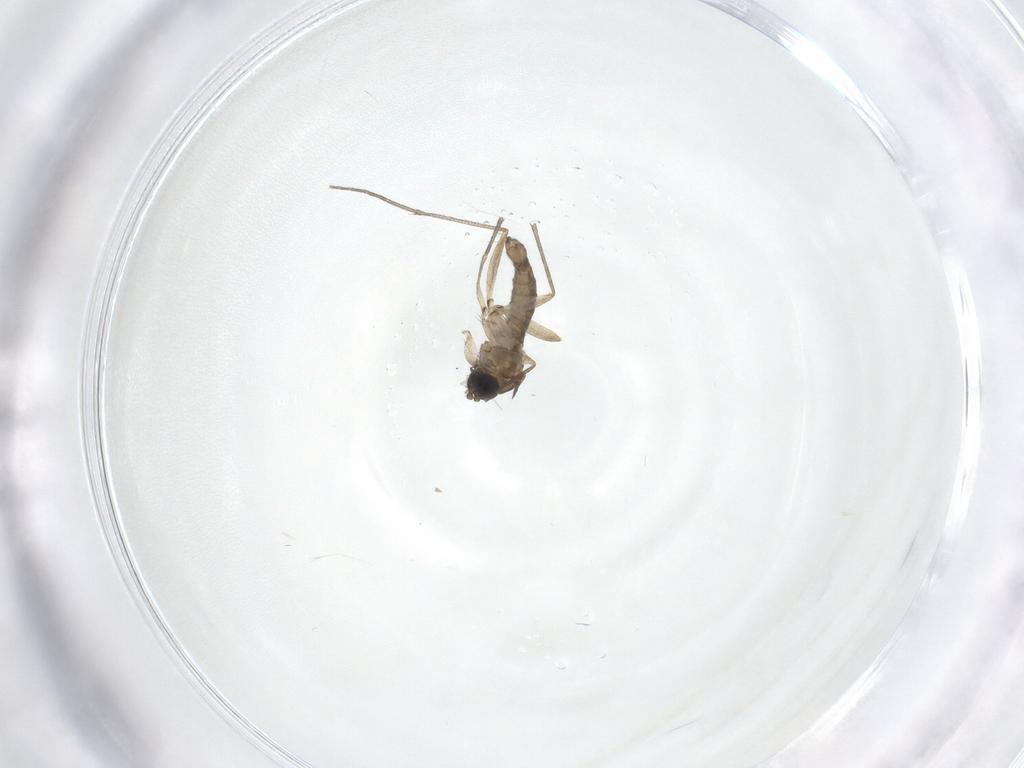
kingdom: Animalia
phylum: Arthropoda
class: Insecta
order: Diptera
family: Sciaridae
